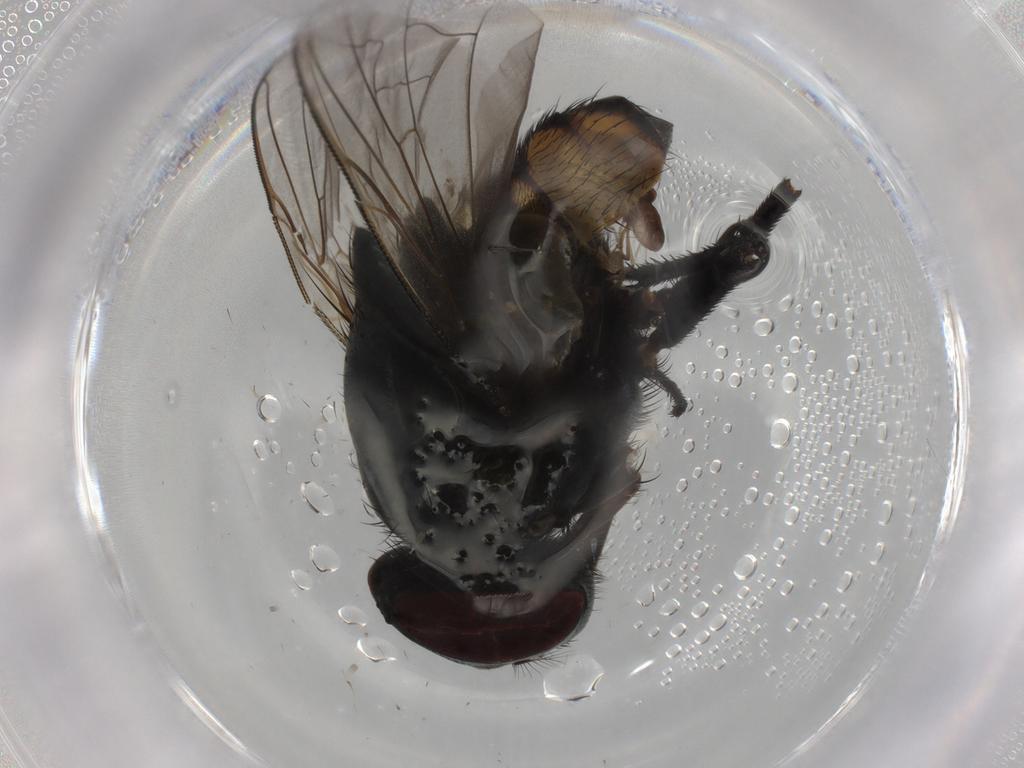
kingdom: Animalia
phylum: Arthropoda
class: Insecta
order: Diptera
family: Muscidae
